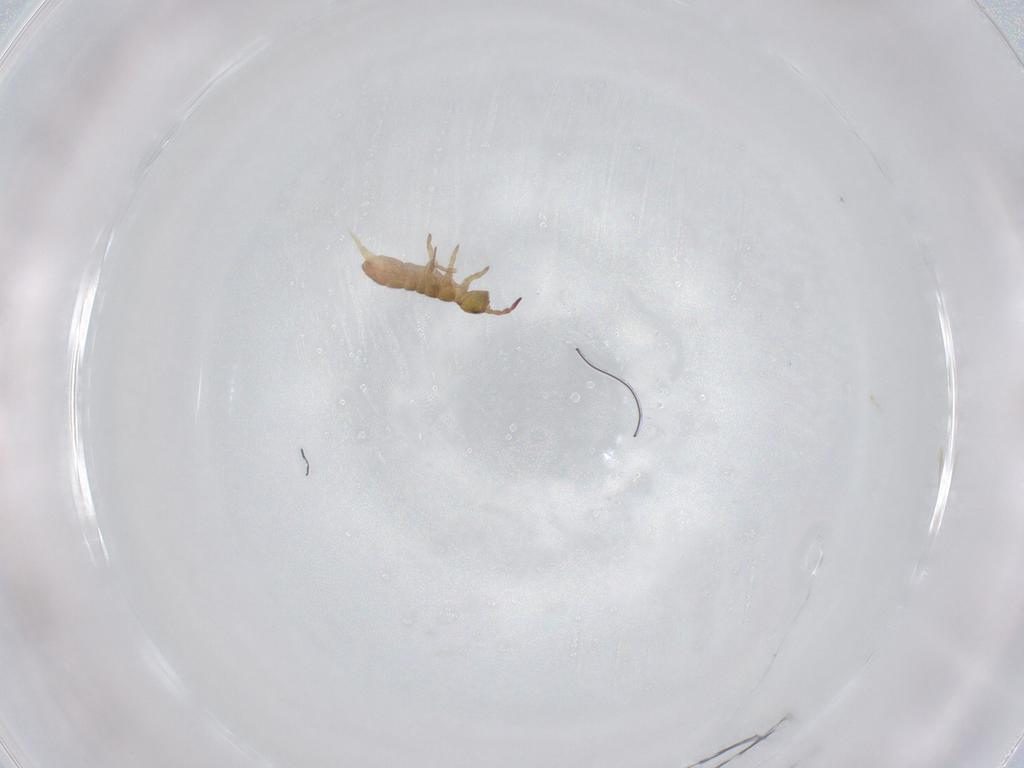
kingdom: Animalia
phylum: Arthropoda
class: Collembola
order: Entomobryomorpha
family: Isotomidae
